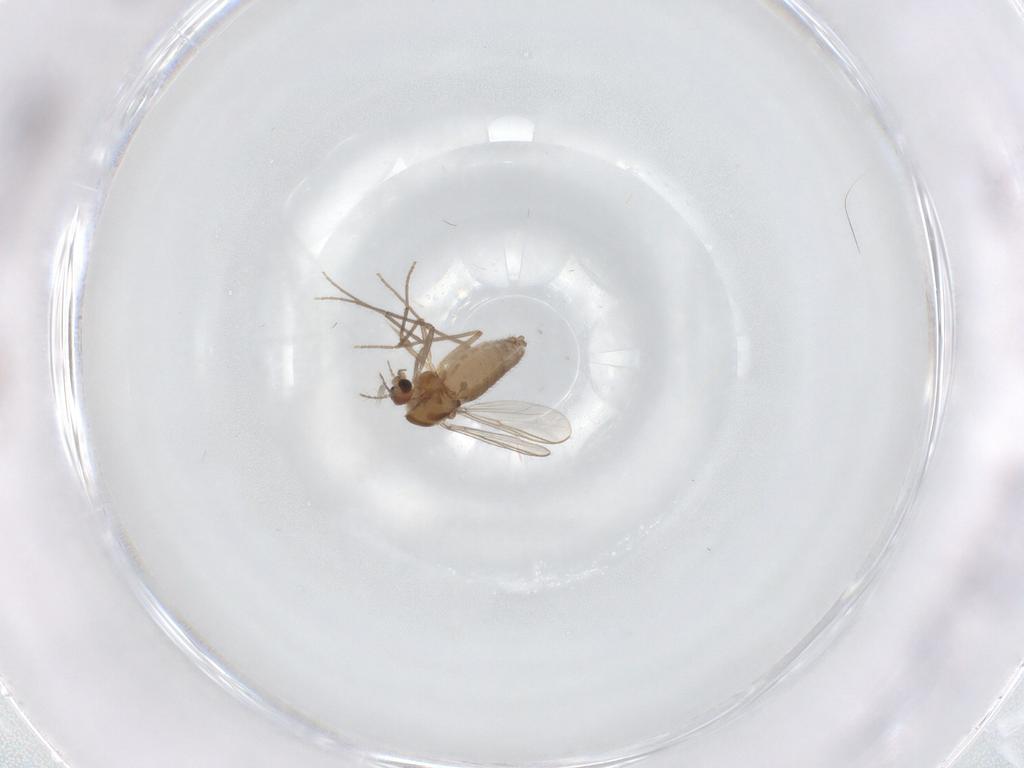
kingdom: Animalia
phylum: Arthropoda
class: Insecta
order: Diptera
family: Chironomidae
